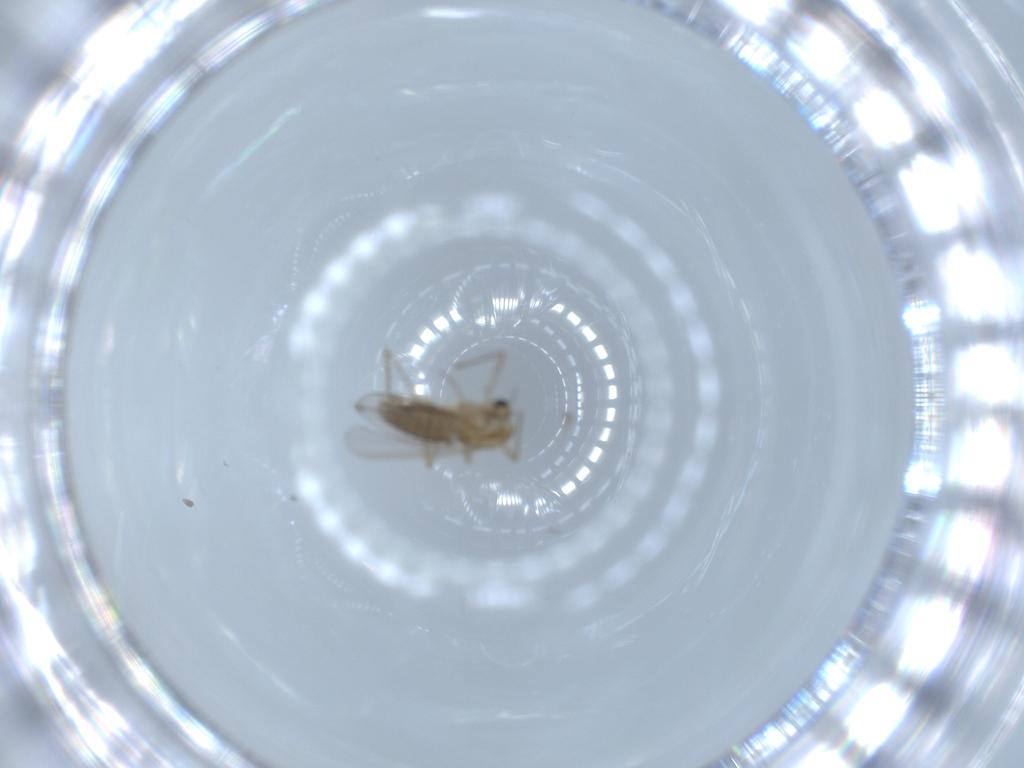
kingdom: Animalia
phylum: Arthropoda
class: Insecta
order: Diptera
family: Chironomidae
